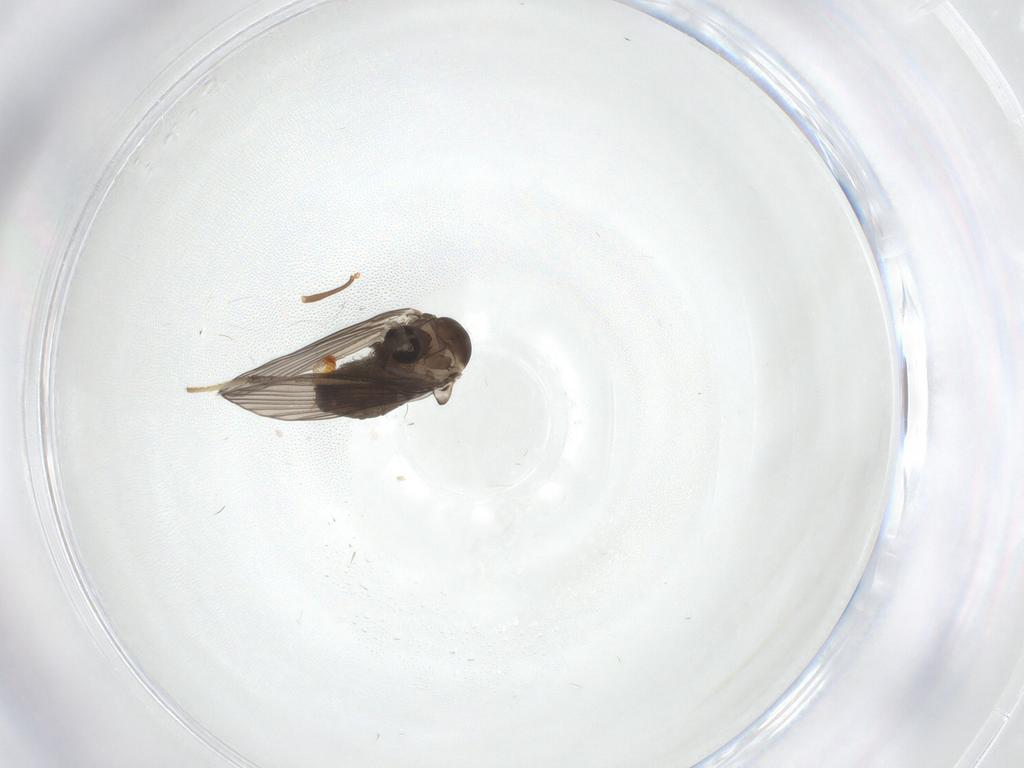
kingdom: Animalia
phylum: Arthropoda
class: Insecta
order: Diptera
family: Psychodidae
